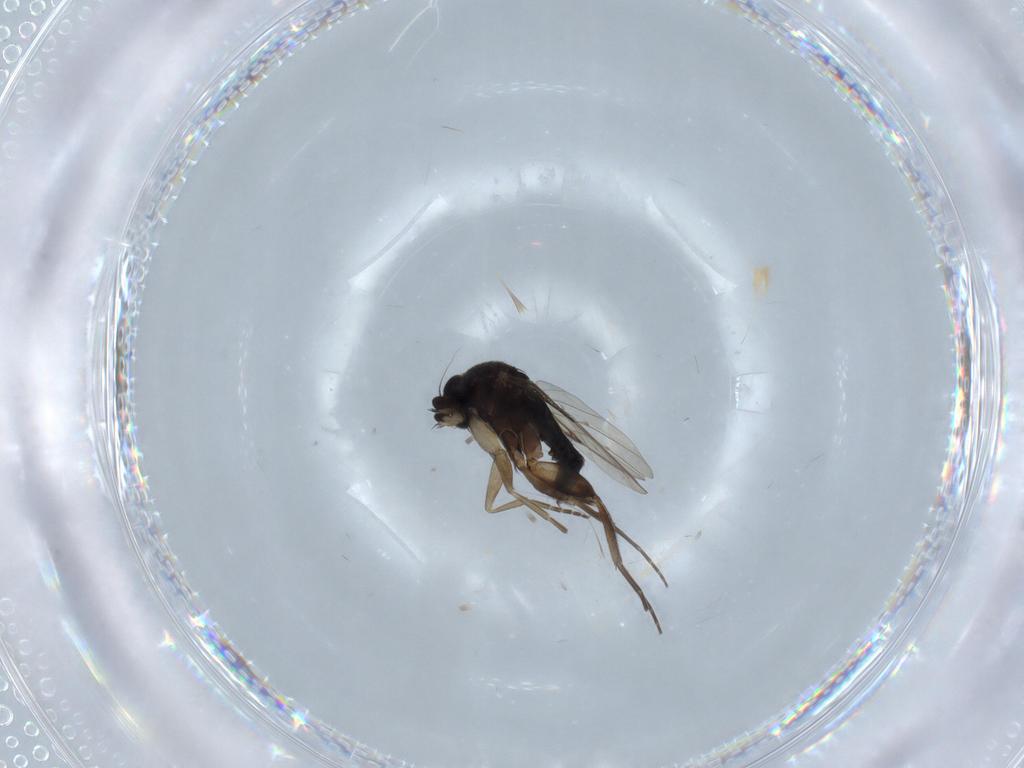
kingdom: Animalia
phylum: Arthropoda
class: Insecta
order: Diptera
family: Phoridae
